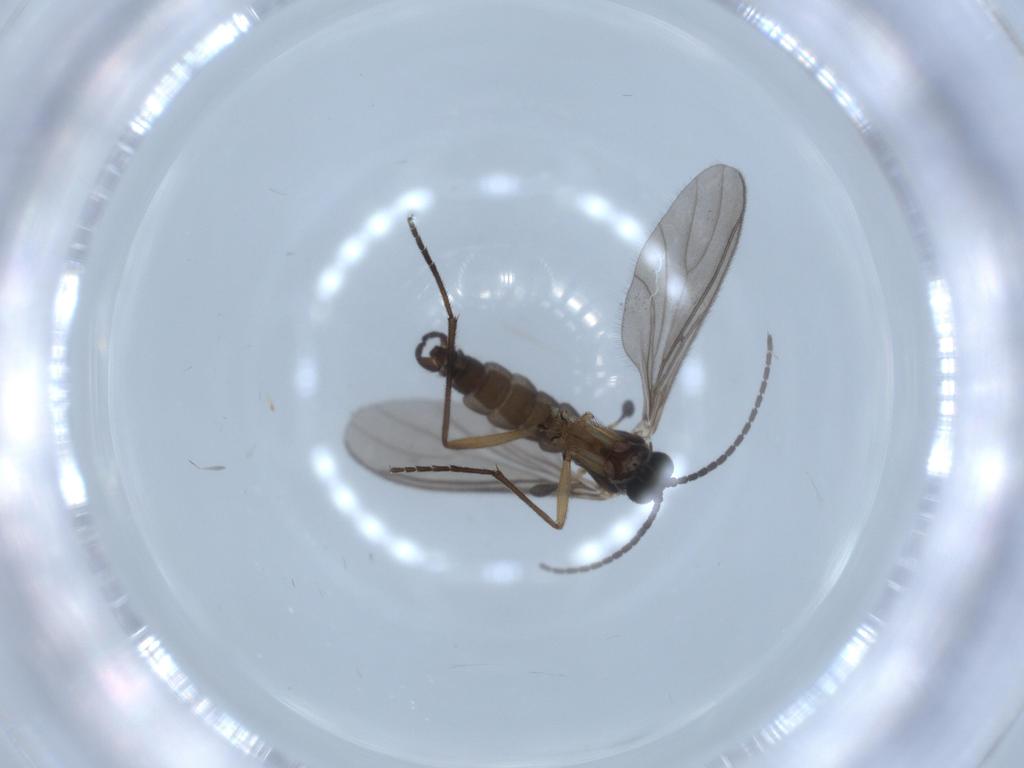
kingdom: Animalia
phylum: Arthropoda
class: Insecta
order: Diptera
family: Sciaridae
